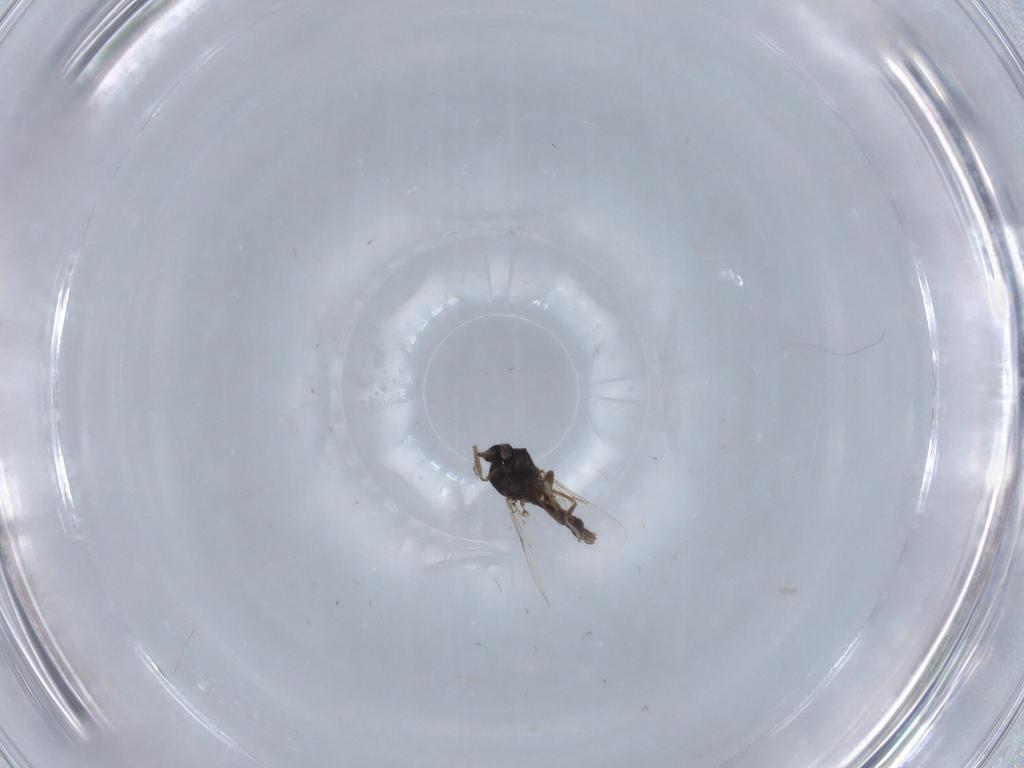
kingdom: Animalia
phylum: Arthropoda
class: Insecta
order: Diptera
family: Ceratopogonidae
